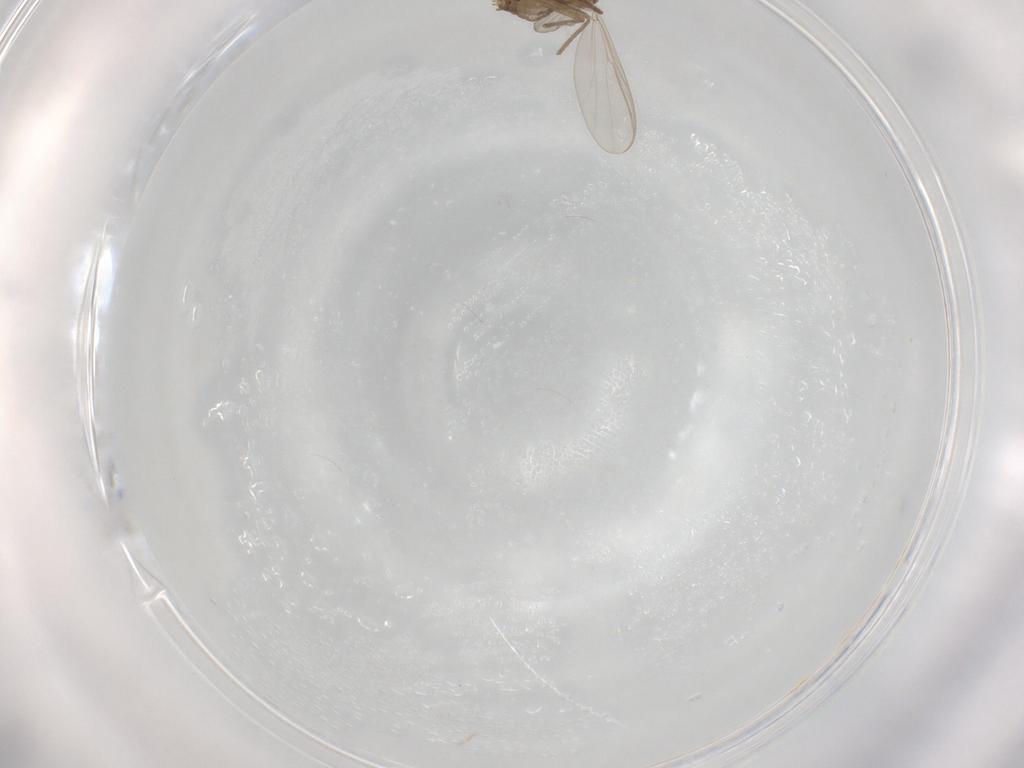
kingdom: Animalia
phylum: Arthropoda
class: Insecta
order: Diptera
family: Chironomidae
